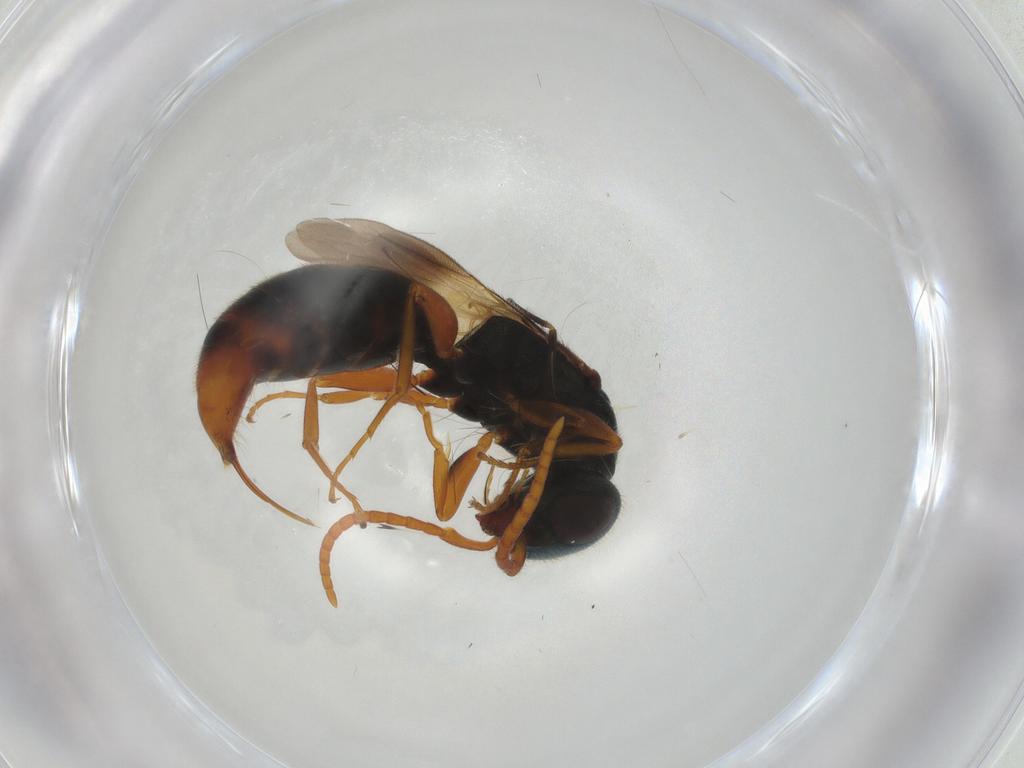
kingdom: Animalia
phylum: Arthropoda
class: Insecta
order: Hymenoptera
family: Bethylidae
